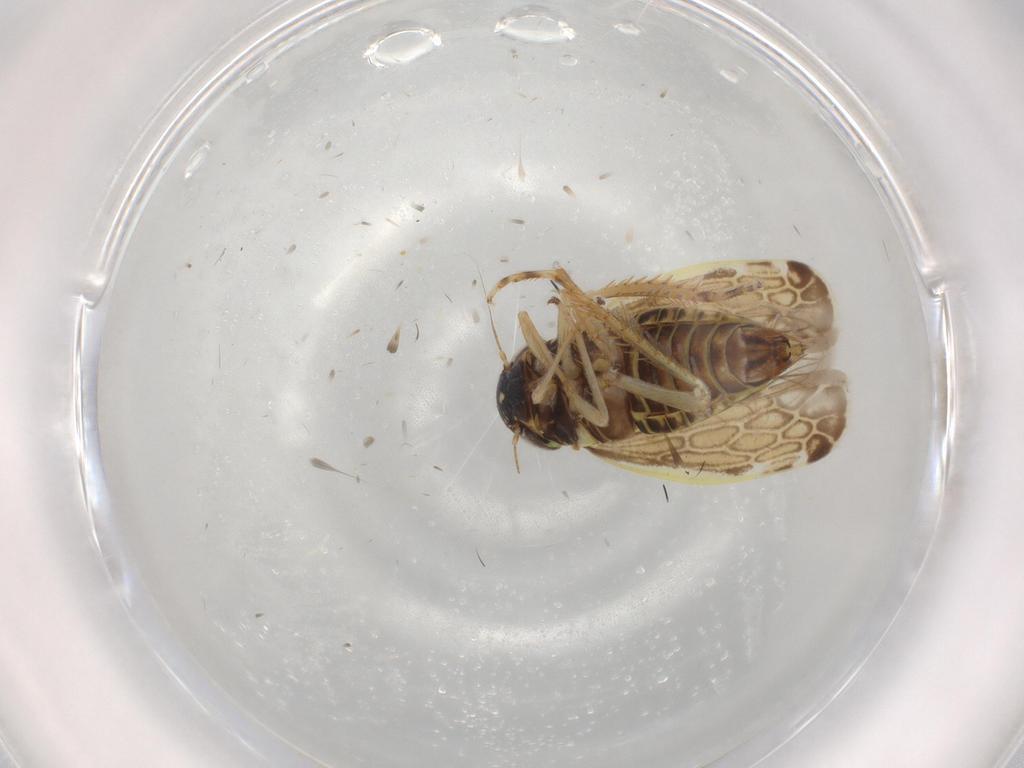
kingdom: Animalia
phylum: Arthropoda
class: Insecta
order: Hemiptera
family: Cicadellidae
